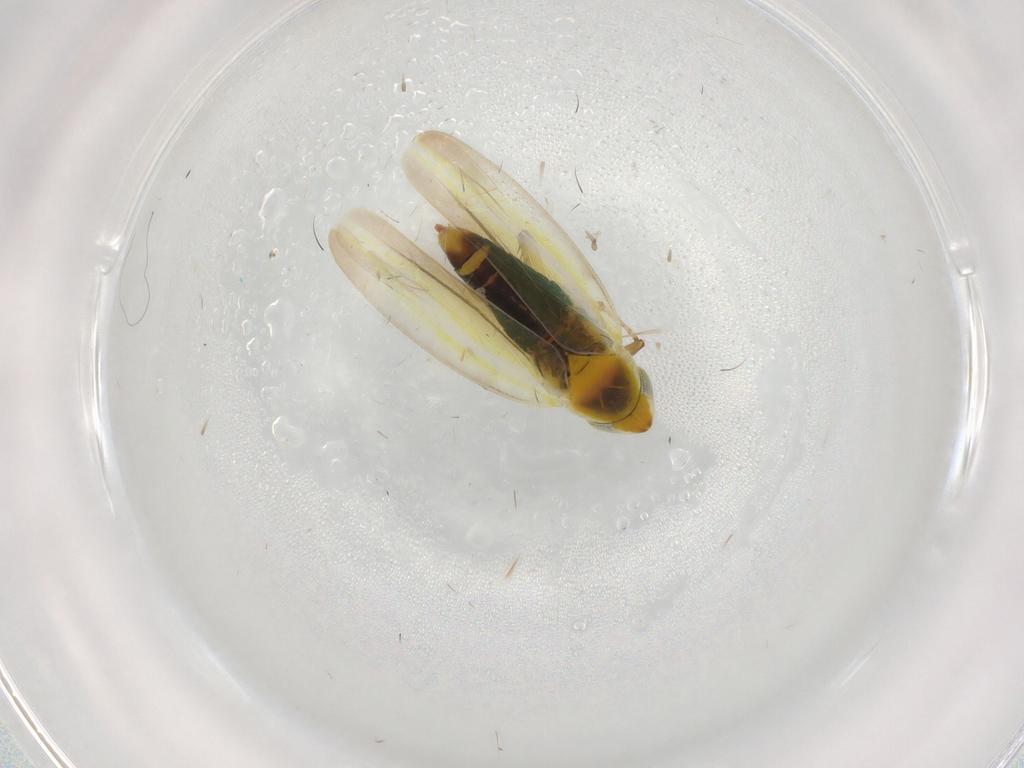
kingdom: Animalia
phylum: Arthropoda
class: Insecta
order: Hemiptera
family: Cicadellidae
